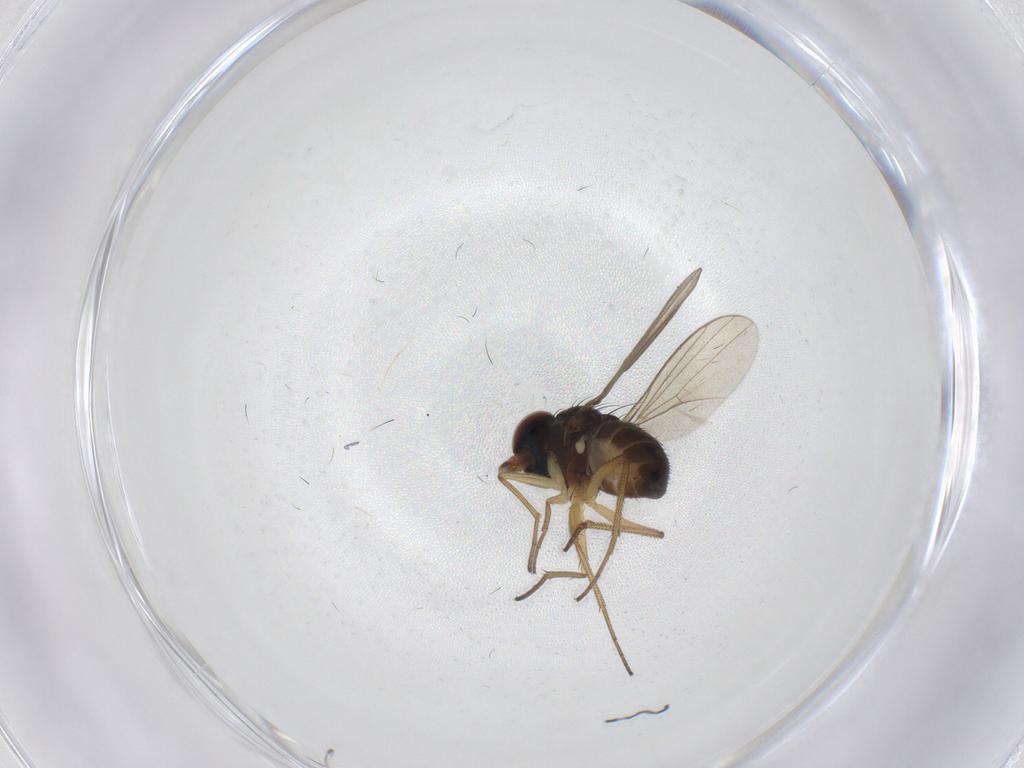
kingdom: Animalia
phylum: Arthropoda
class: Insecta
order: Diptera
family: Dolichopodidae
